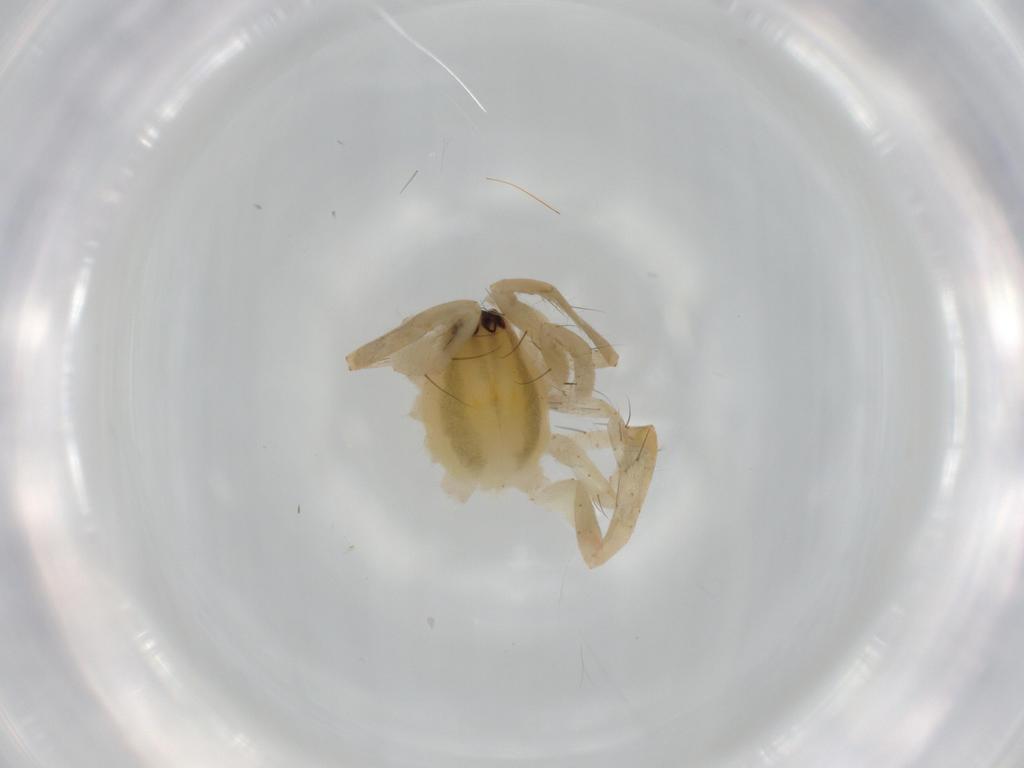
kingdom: Animalia
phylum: Arthropoda
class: Arachnida
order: Araneae
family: Anyphaenidae
